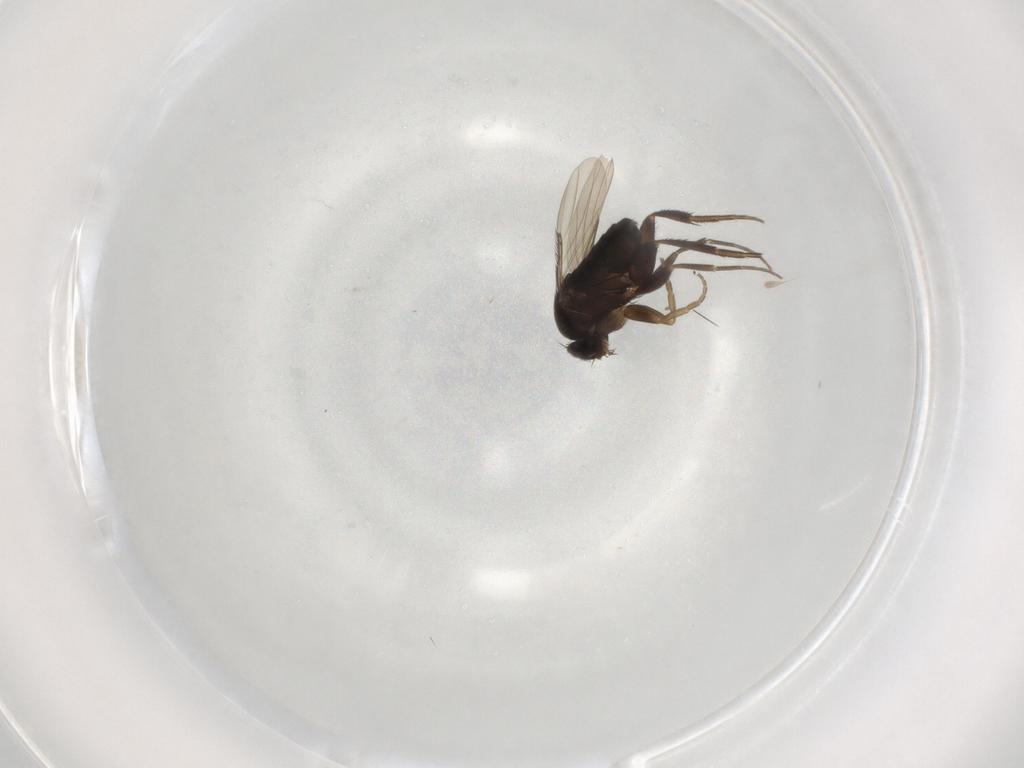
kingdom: Animalia
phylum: Arthropoda
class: Insecta
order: Diptera
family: Phoridae
